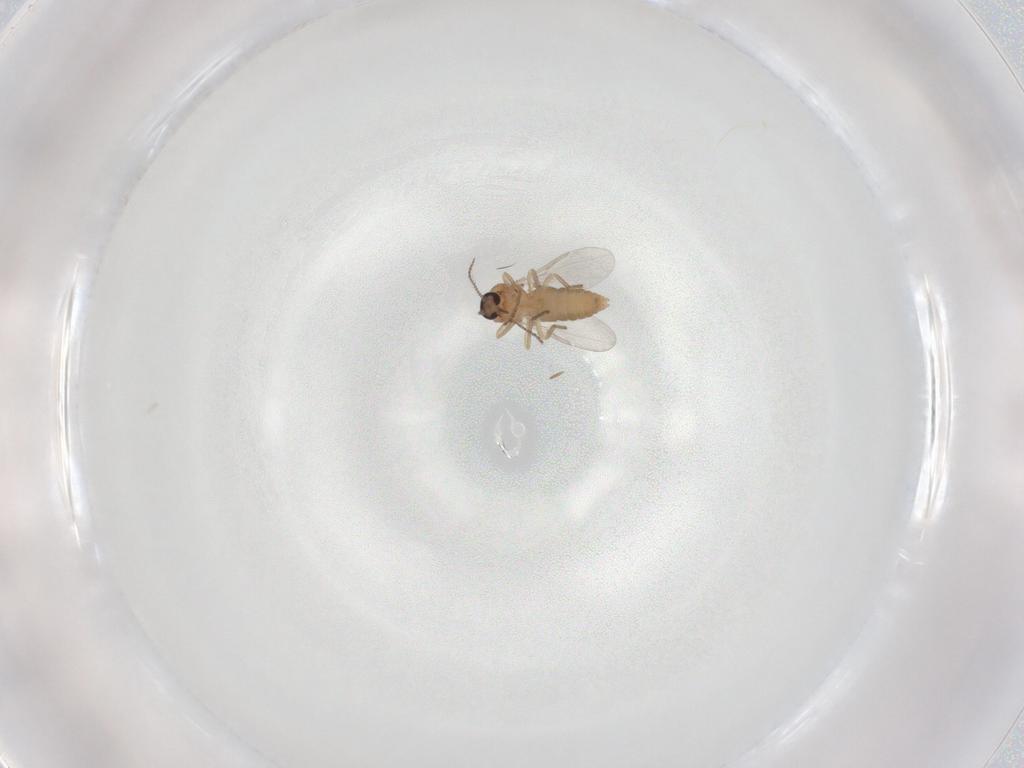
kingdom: Animalia
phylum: Arthropoda
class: Insecta
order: Diptera
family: Ceratopogonidae
